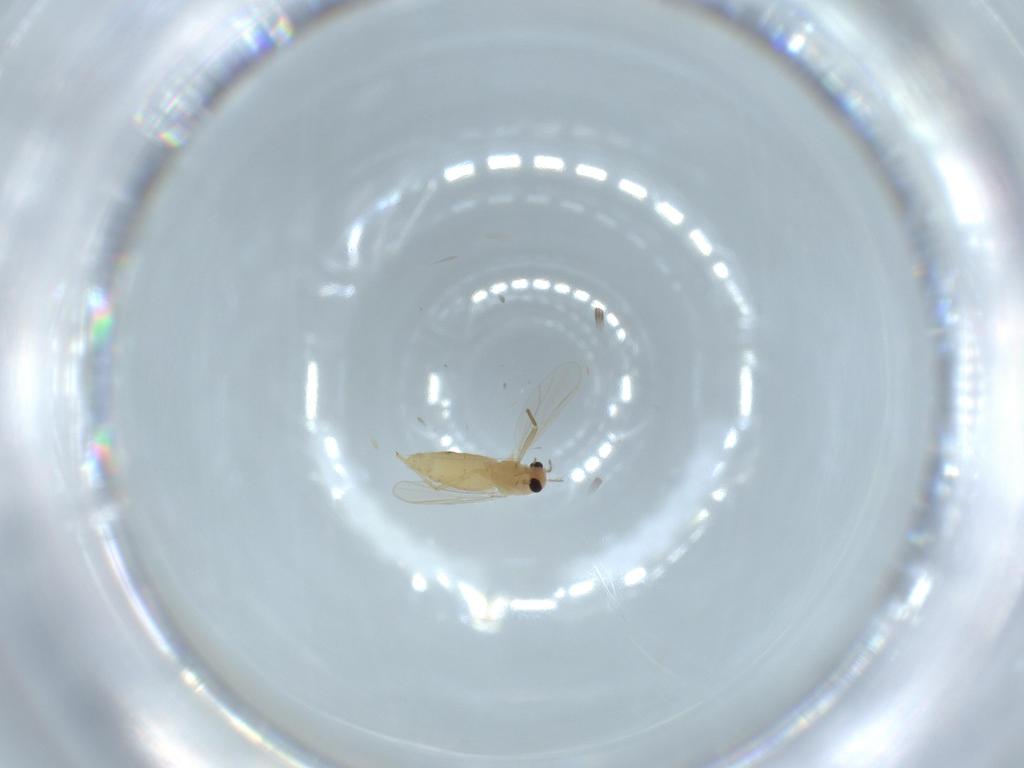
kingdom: Animalia
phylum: Arthropoda
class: Insecta
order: Diptera
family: Chironomidae
